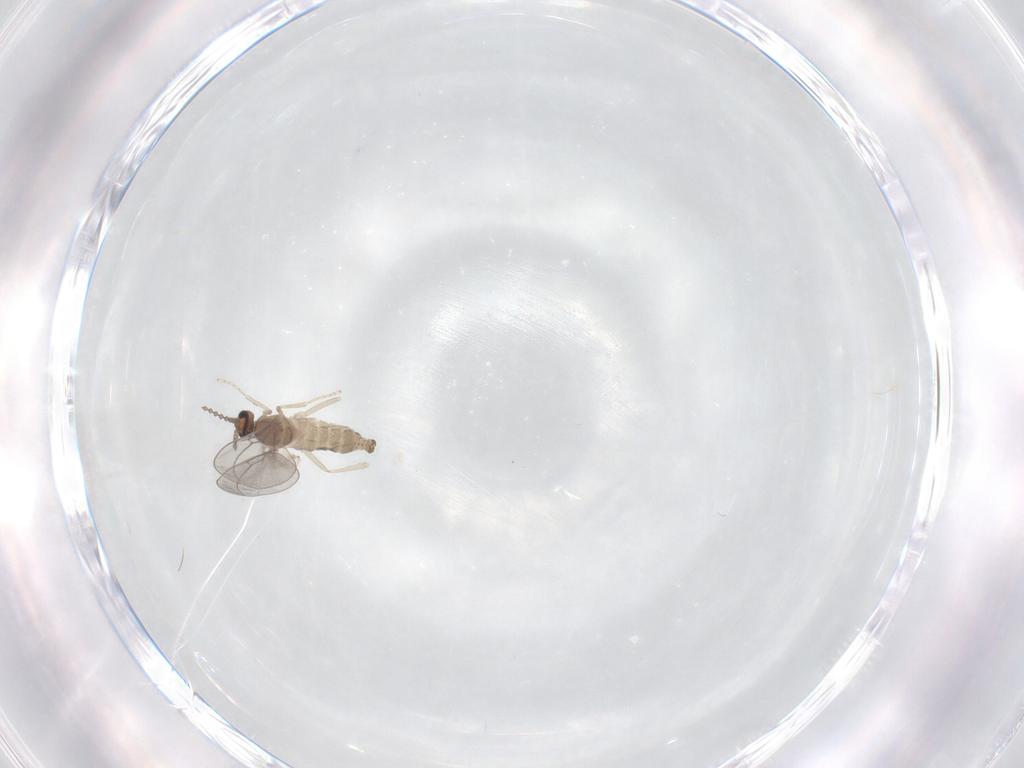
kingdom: Animalia
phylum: Arthropoda
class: Insecta
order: Diptera
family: Cecidomyiidae
